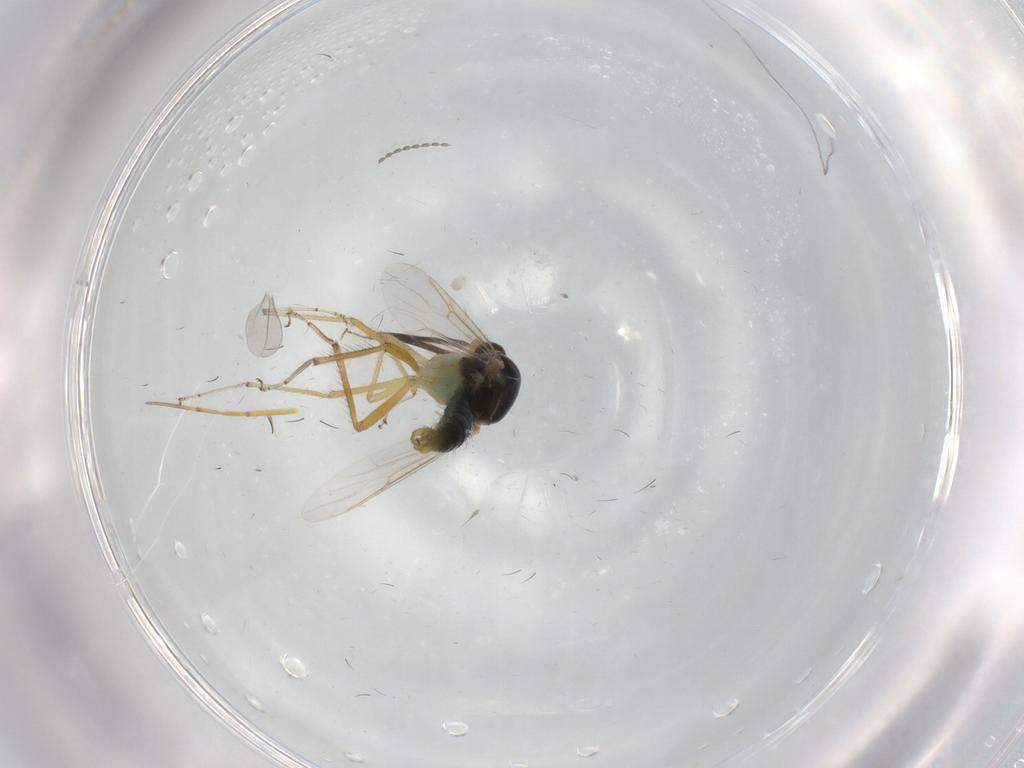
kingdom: Animalia
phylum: Arthropoda
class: Insecta
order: Diptera
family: Ceratopogonidae
